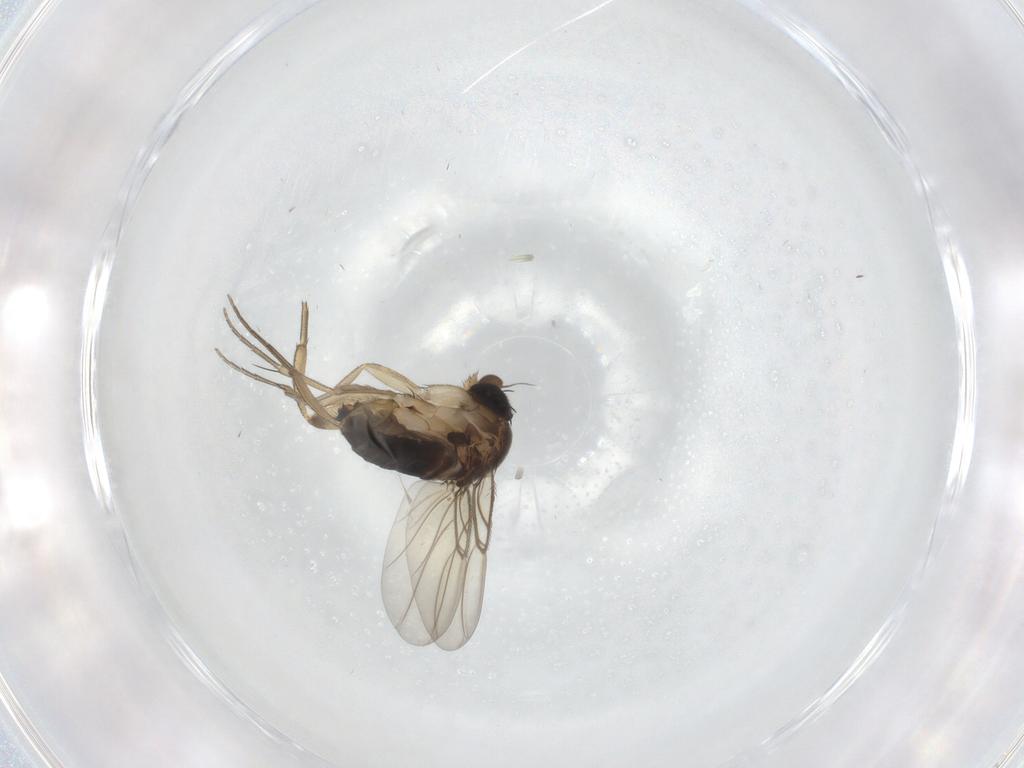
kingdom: Animalia
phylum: Arthropoda
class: Insecta
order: Diptera
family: Phoridae
